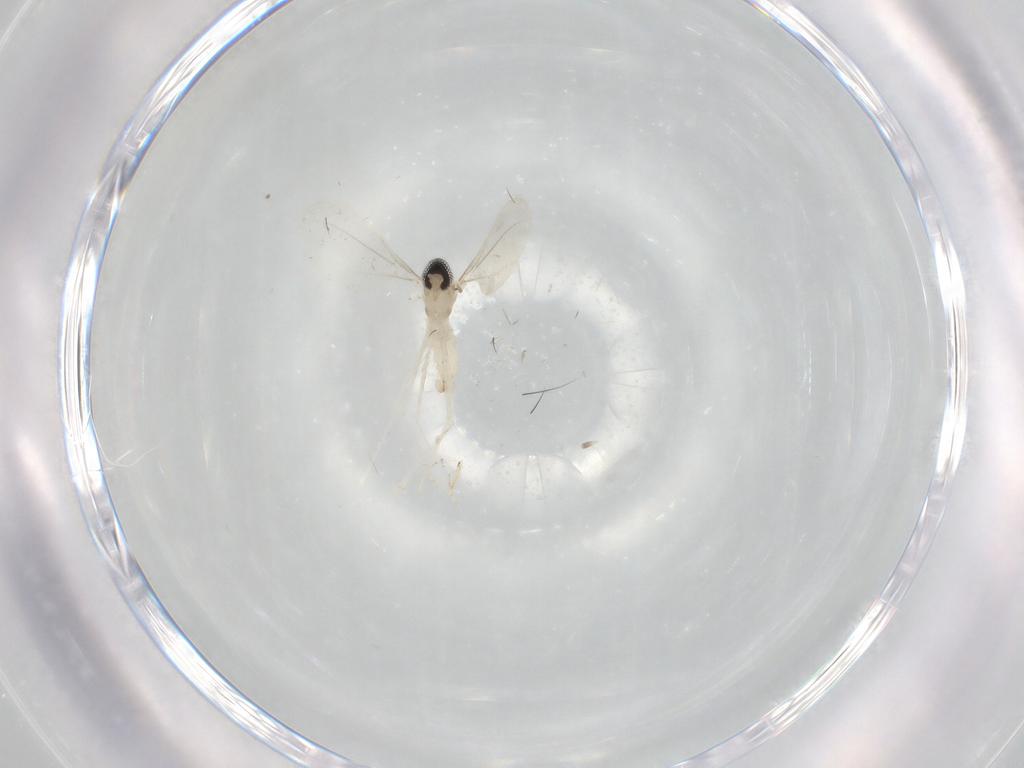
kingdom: Animalia
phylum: Arthropoda
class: Insecta
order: Diptera
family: Cecidomyiidae
